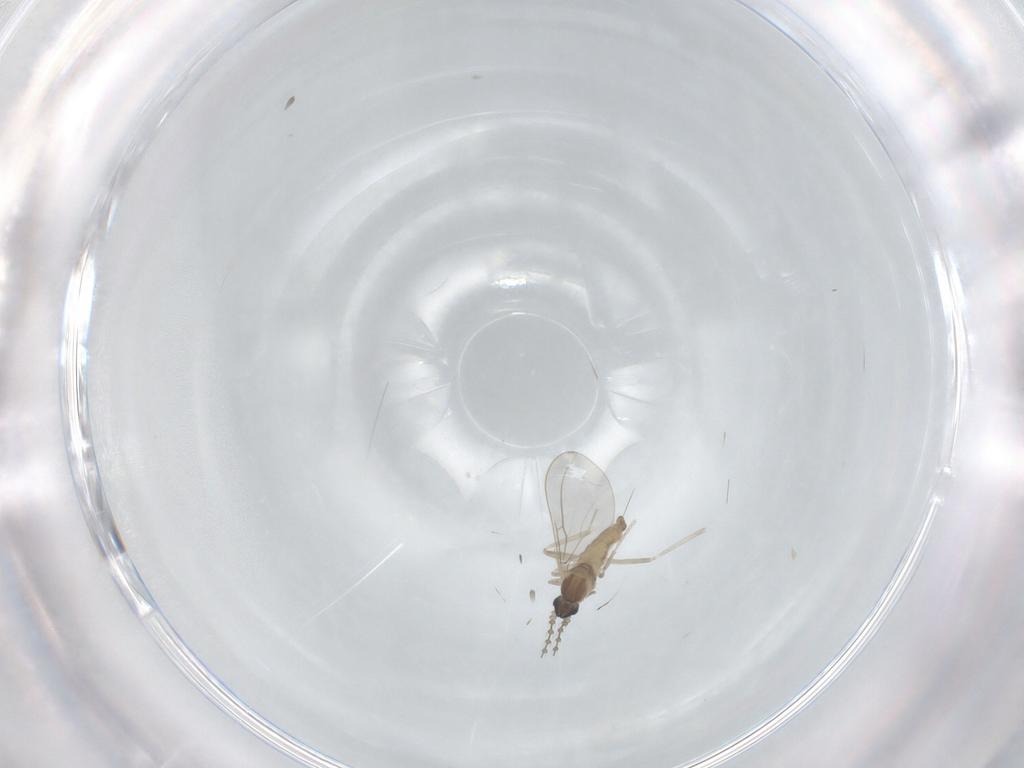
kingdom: Animalia
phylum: Arthropoda
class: Insecta
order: Diptera
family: Cecidomyiidae
